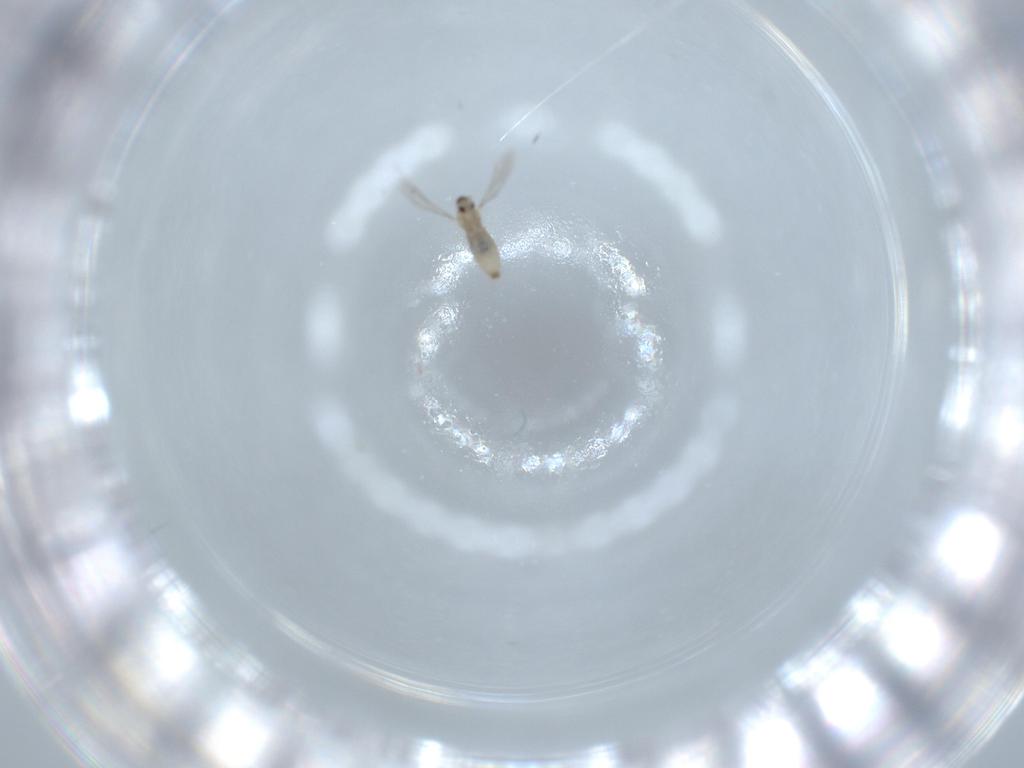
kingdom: Animalia
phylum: Arthropoda
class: Insecta
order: Diptera
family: Cecidomyiidae
